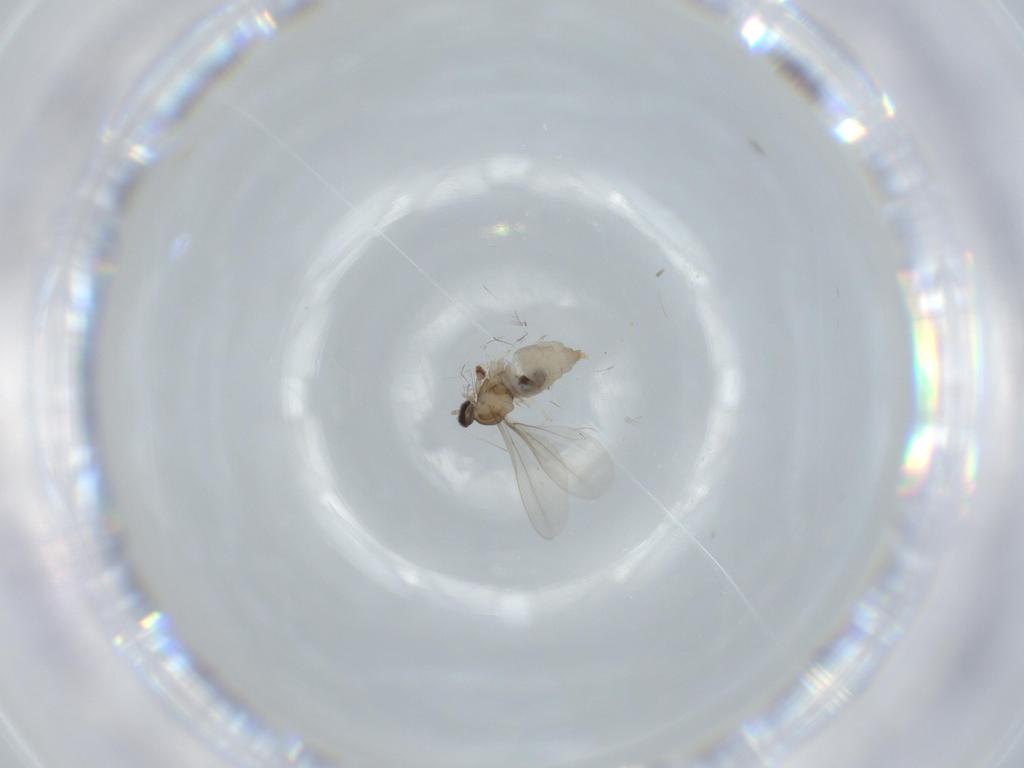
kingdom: Animalia
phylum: Arthropoda
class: Insecta
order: Diptera
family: Cecidomyiidae
